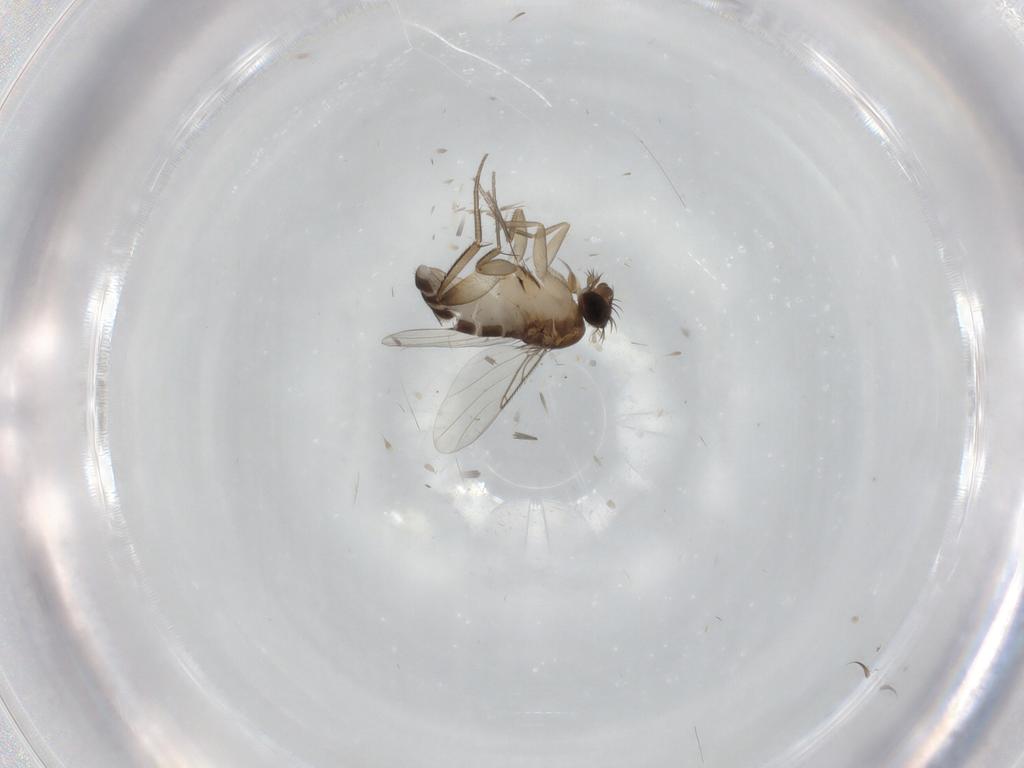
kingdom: Animalia
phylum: Arthropoda
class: Insecta
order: Diptera
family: Phoridae
